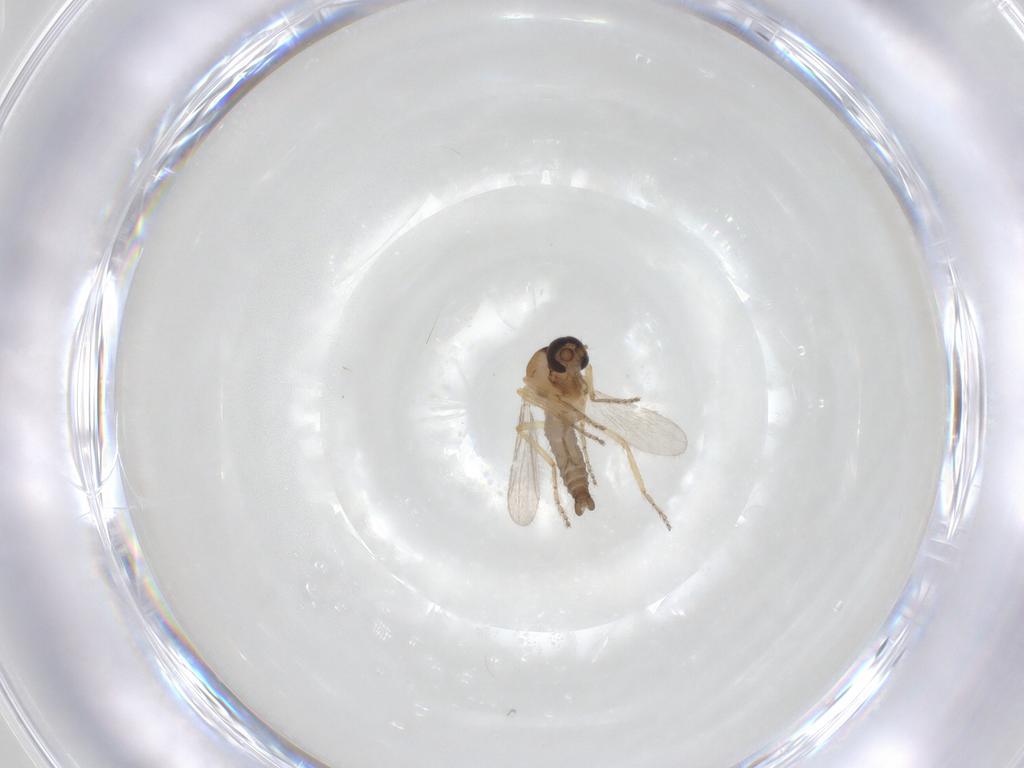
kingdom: Animalia
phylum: Arthropoda
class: Insecta
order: Diptera
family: Ceratopogonidae
